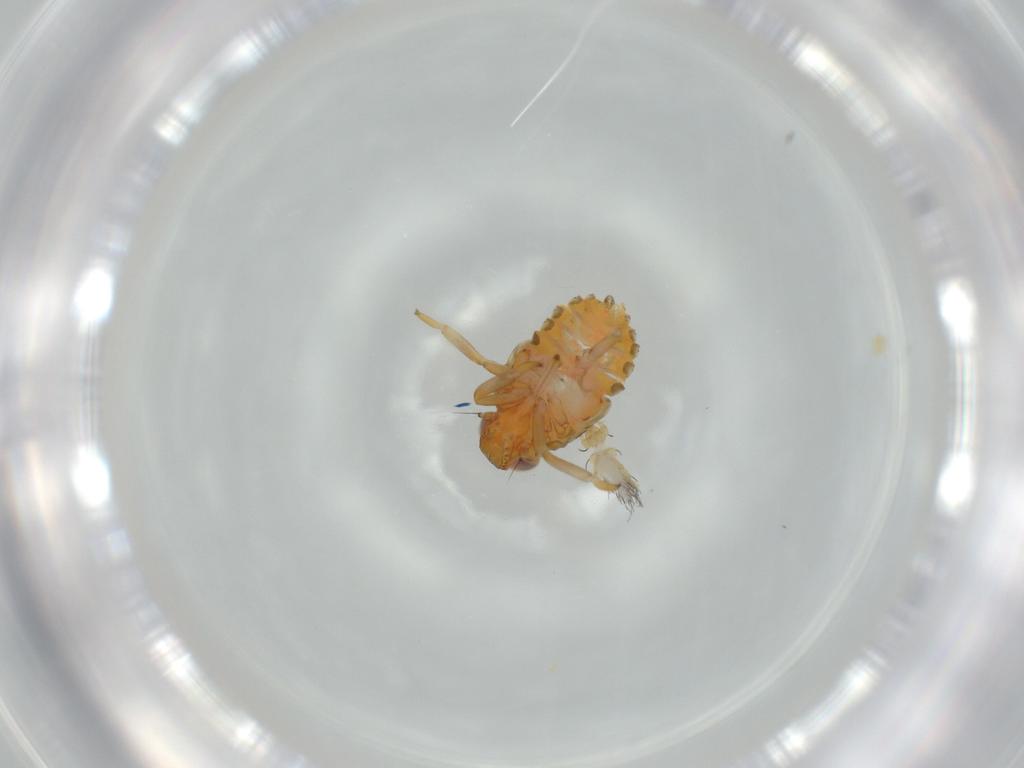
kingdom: Animalia
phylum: Arthropoda
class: Insecta
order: Hemiptera
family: Issidae
